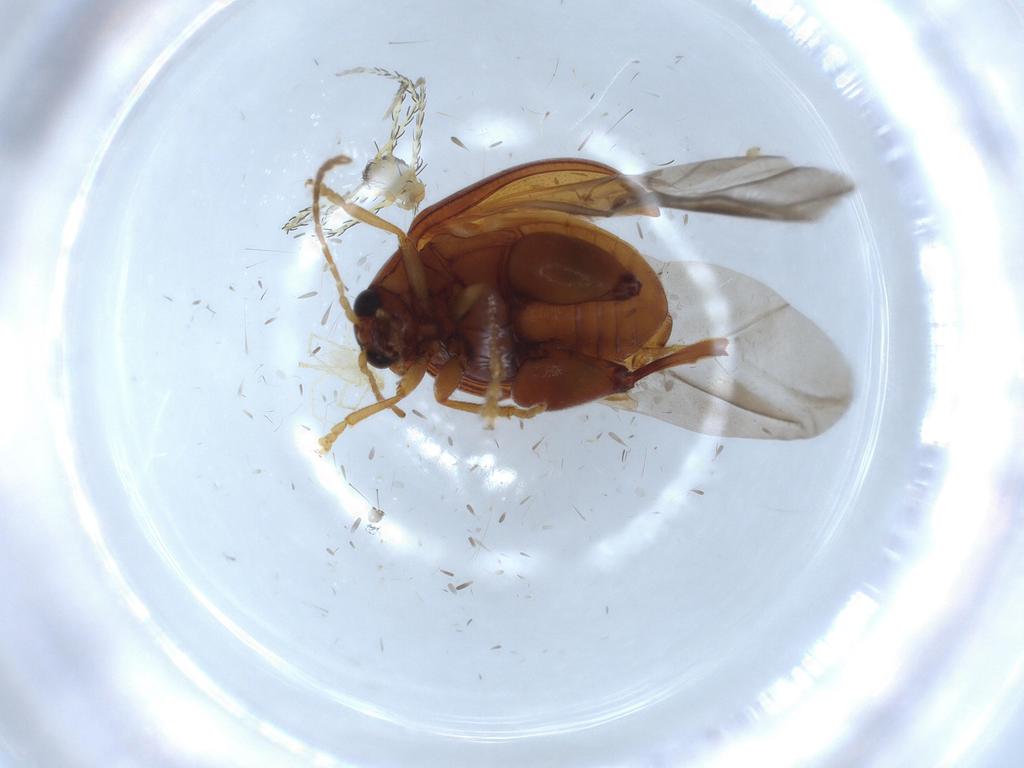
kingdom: Animalia
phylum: Arthropoda
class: Insecta
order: Coleoptera
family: Chrysomelidae
